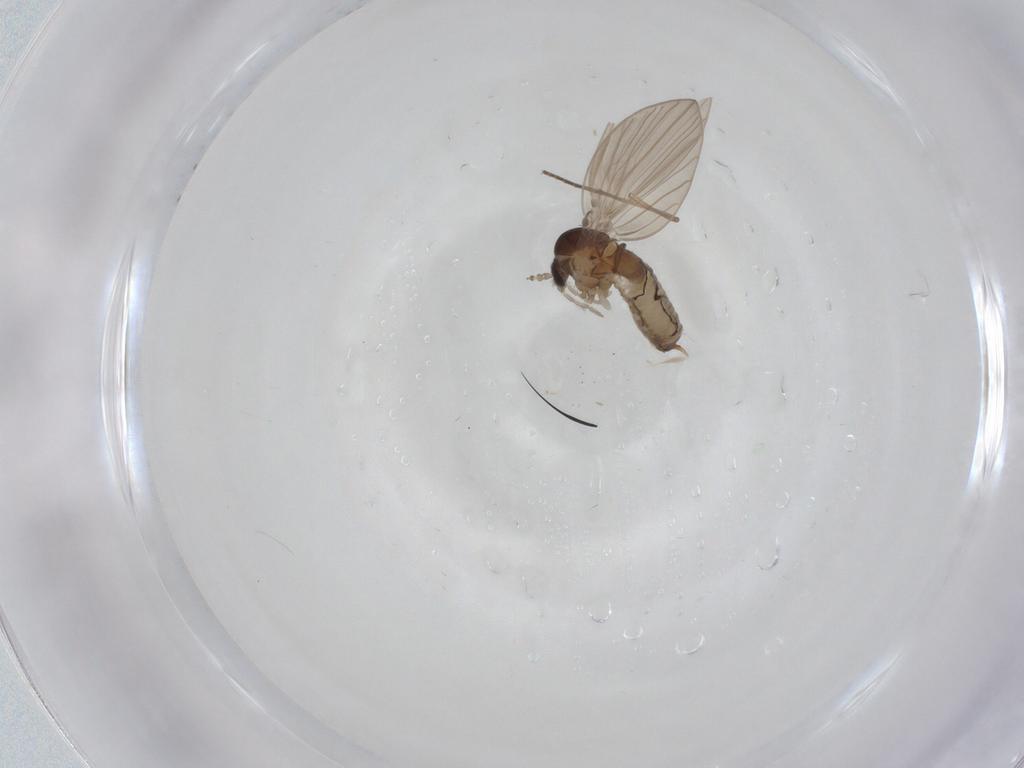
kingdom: Animalia
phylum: Arthropoda
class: Insecta
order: Diptera
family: Psychodidae
